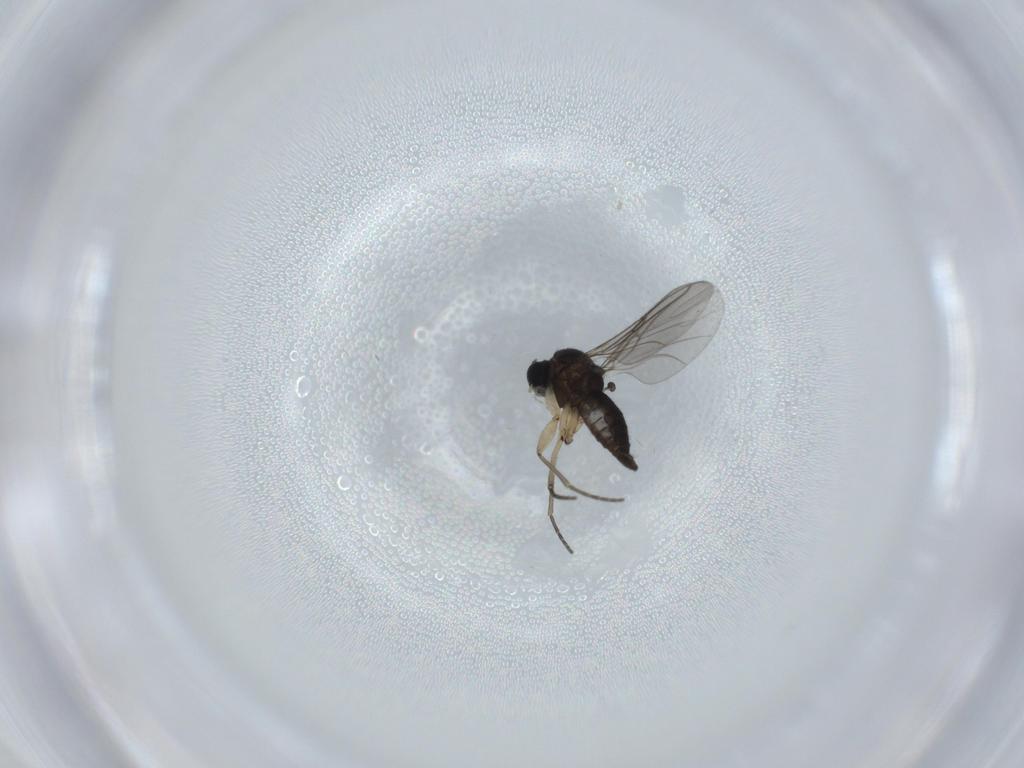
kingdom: Animalia
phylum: Arthropoda
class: Insecta
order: Diptera
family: Sciaridae
